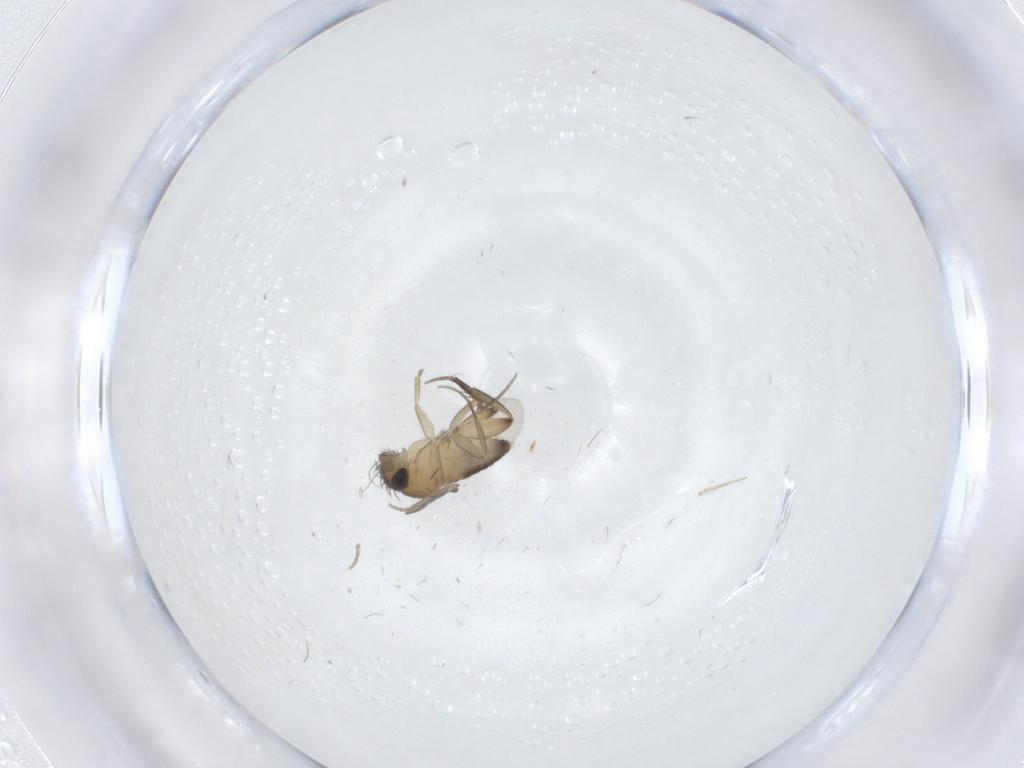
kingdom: Animalia
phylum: Arthropoda
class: Insecta
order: Diptera
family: Phoridae
